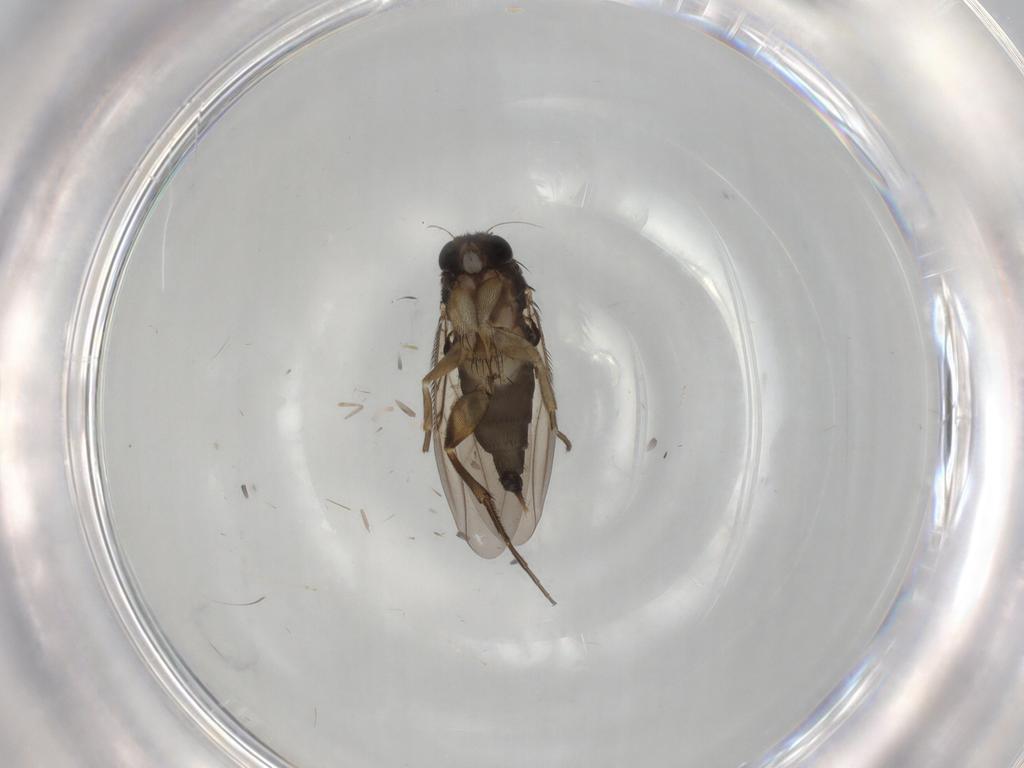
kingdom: Animalia
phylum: Arthropoda
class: Insecta
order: Diptera
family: Cecidomyiidae
